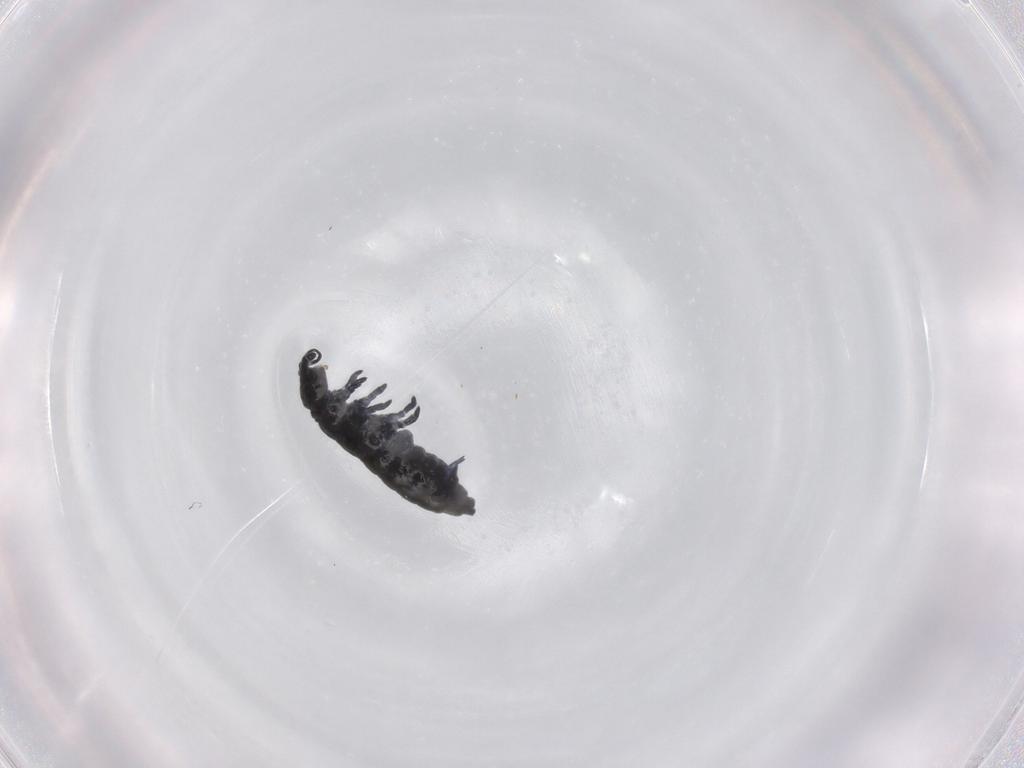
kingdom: Animalia
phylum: Arthropoda
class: Collembola
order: Poduromorpha
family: Hypogastruridae
